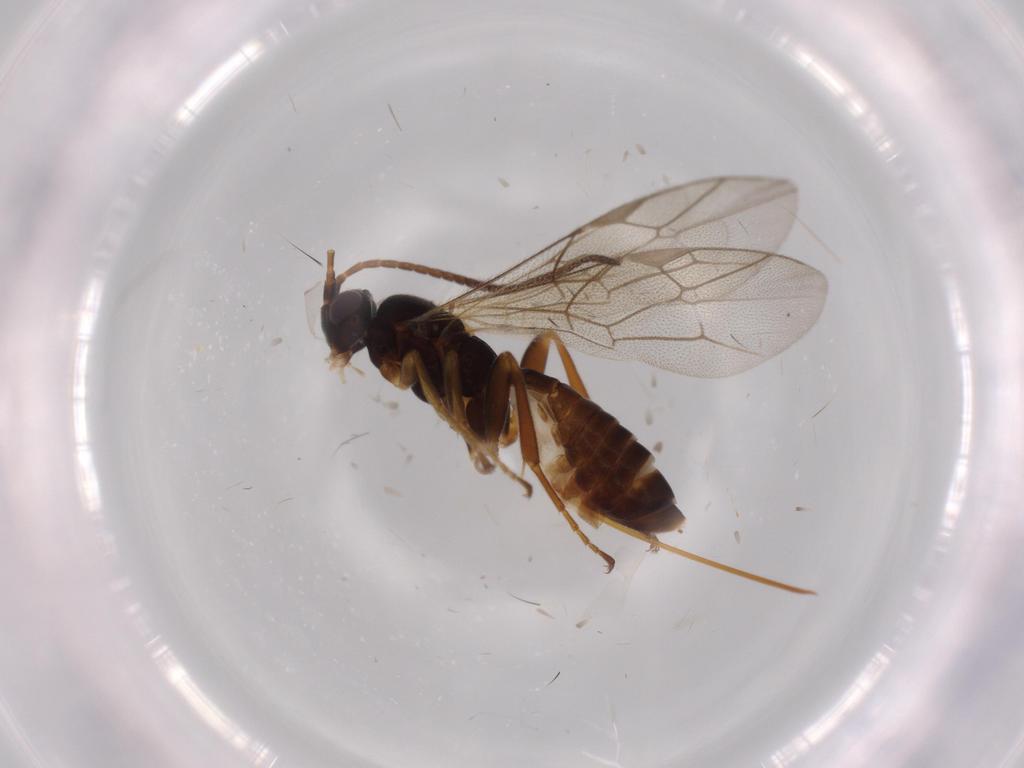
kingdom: Animalia
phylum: Arthropoda
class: Insecta
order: Hymenoptera
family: Ichneumonidae
